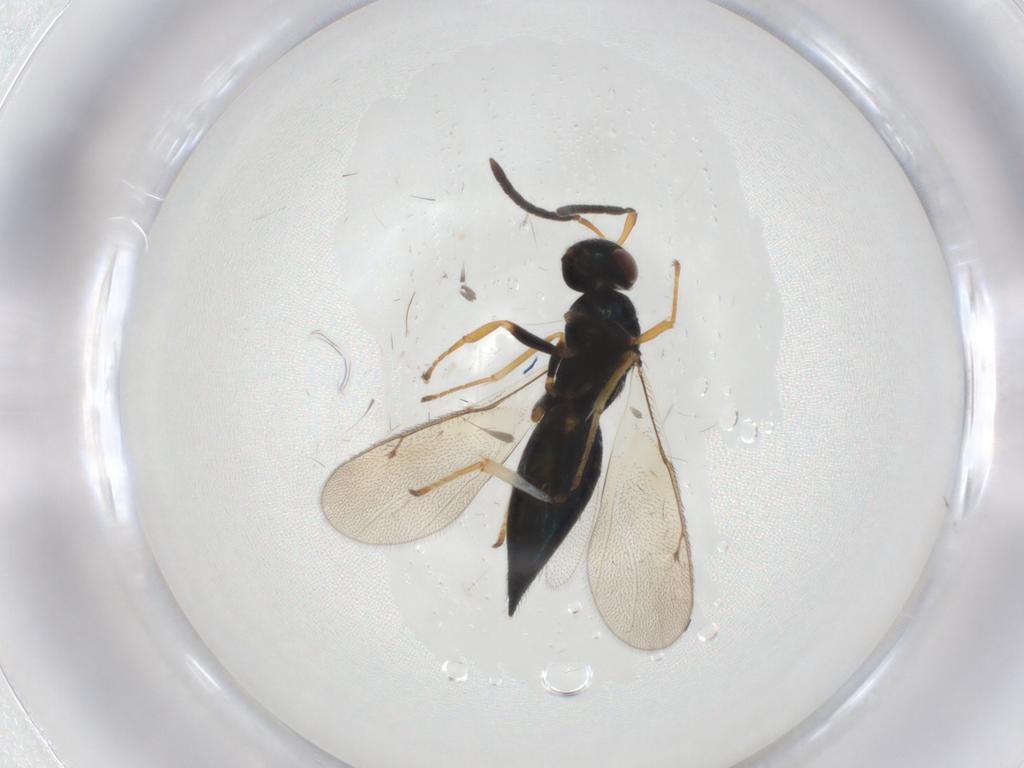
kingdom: Animalia
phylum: Arthropoda
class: Insecta
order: Hymenoptera
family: Pteromalidae
